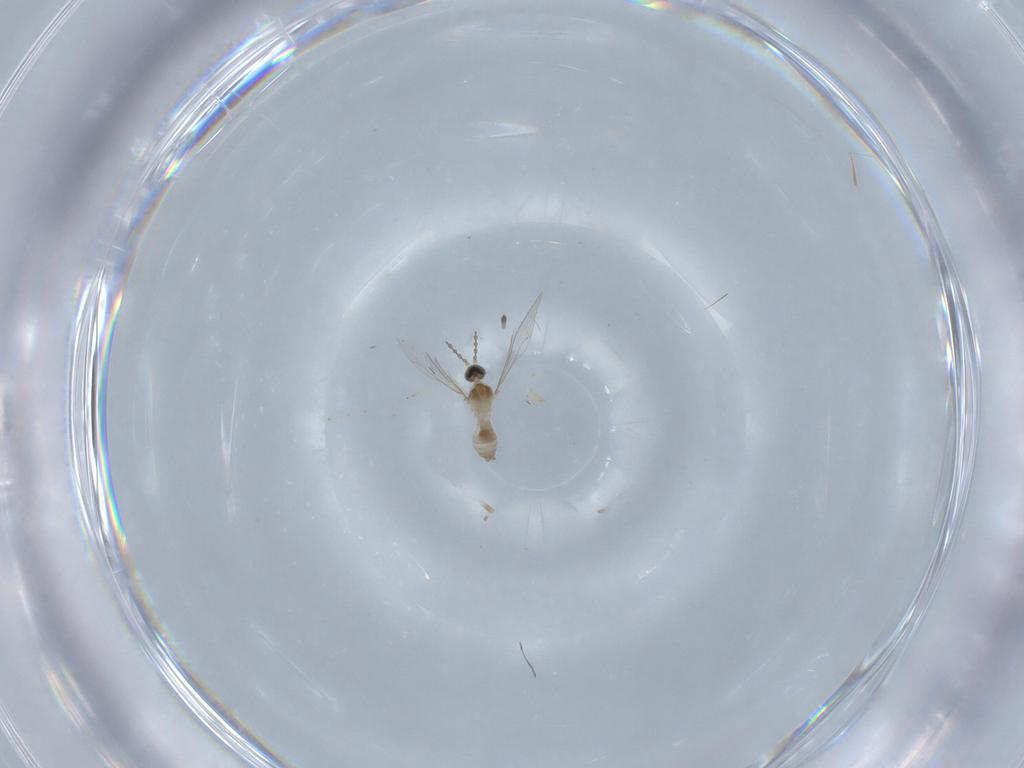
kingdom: Animalia
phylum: Arthropoda
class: Insecta
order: Diptera
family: Cecidomyiidae
